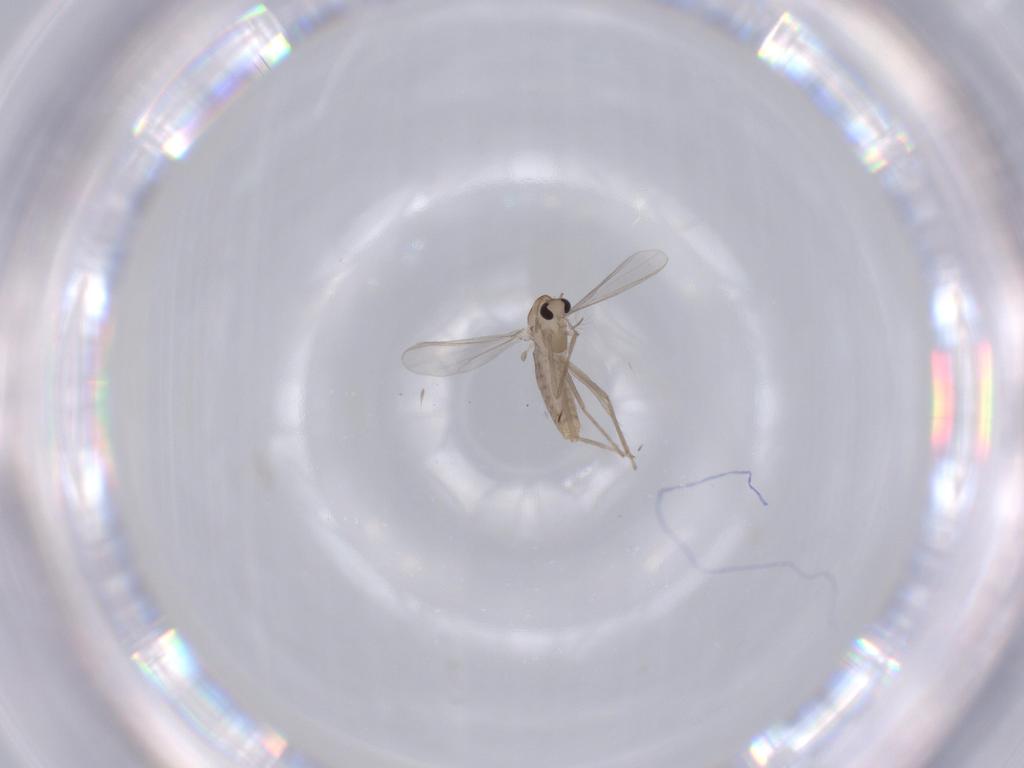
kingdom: Animalia
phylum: Arthropoda
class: Insecta
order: Diptera
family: Chironomidae
